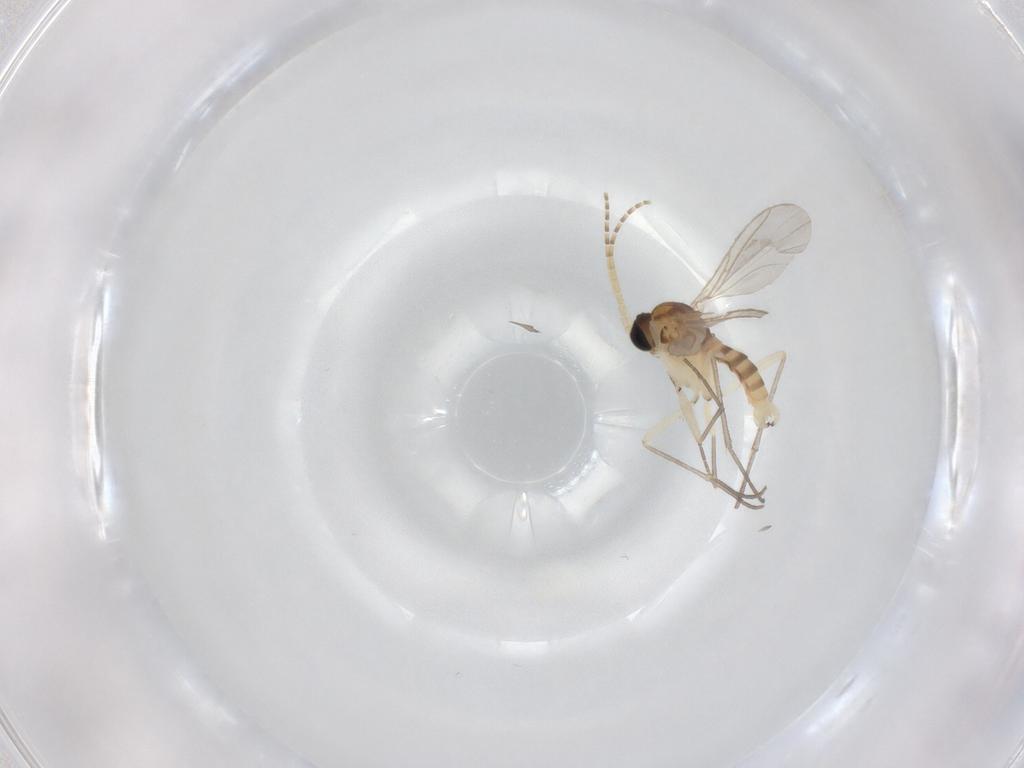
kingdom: Animalia
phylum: Arthropoda
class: Insecta
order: Diptera
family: Sciaridae
